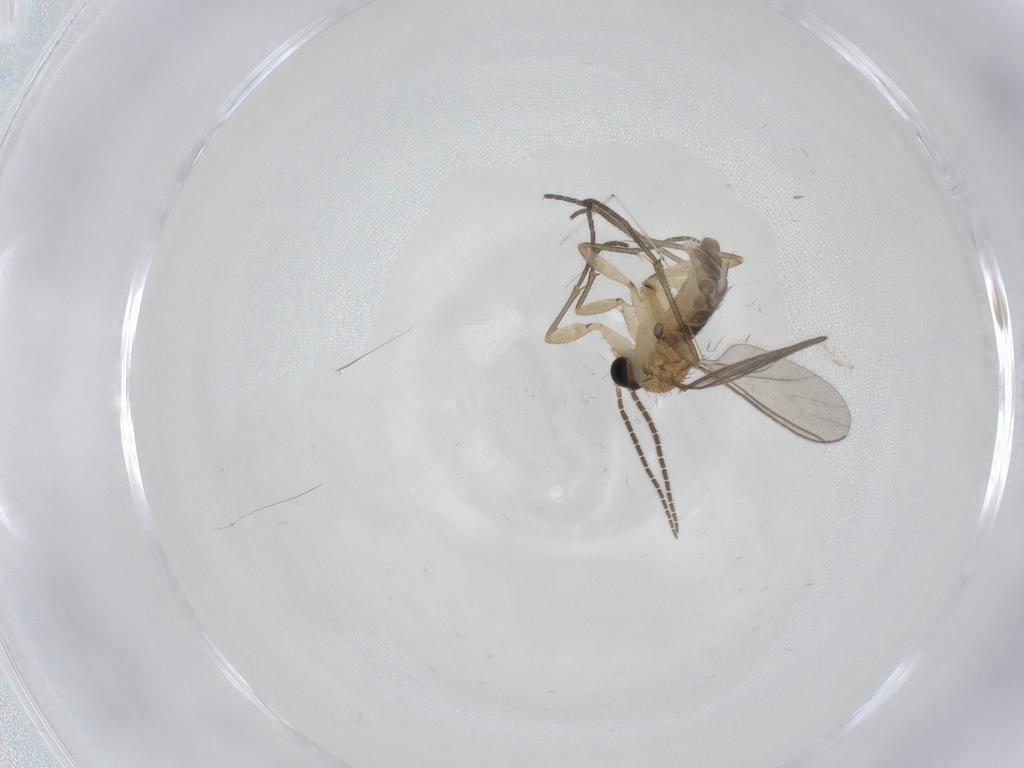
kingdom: Animalia
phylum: Arthropoda
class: Insecta
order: Diptera
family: Sciaridae
